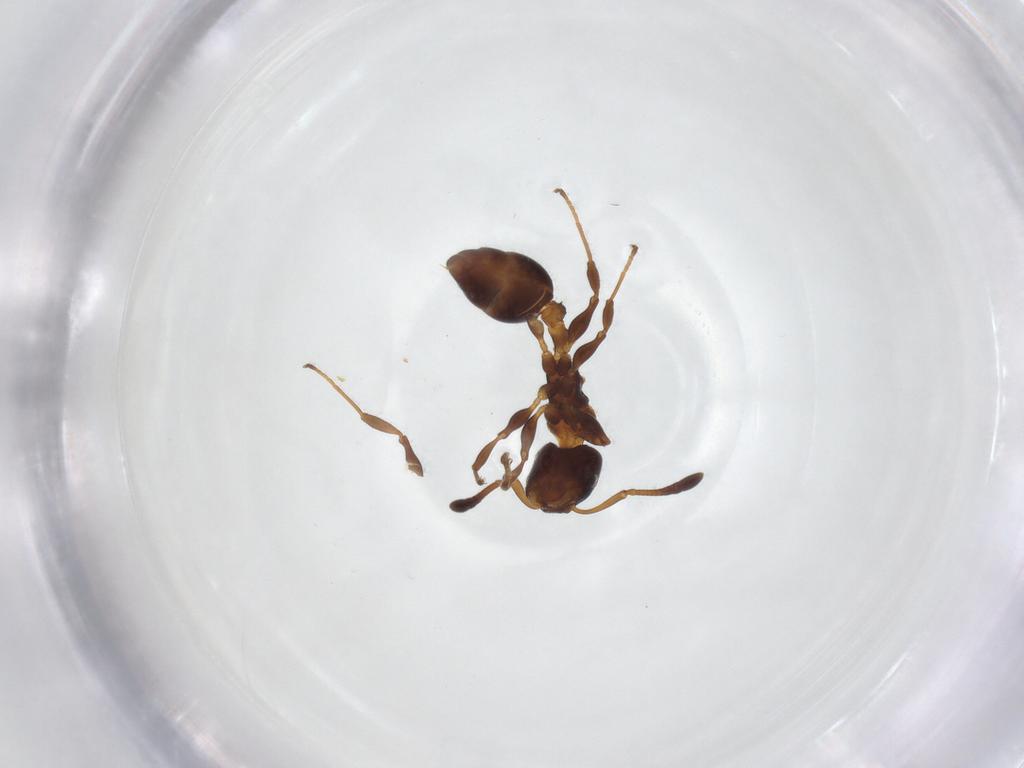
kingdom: Animalia
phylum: Arthropoda
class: Insecta
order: Hymenoptera
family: Formicidae
